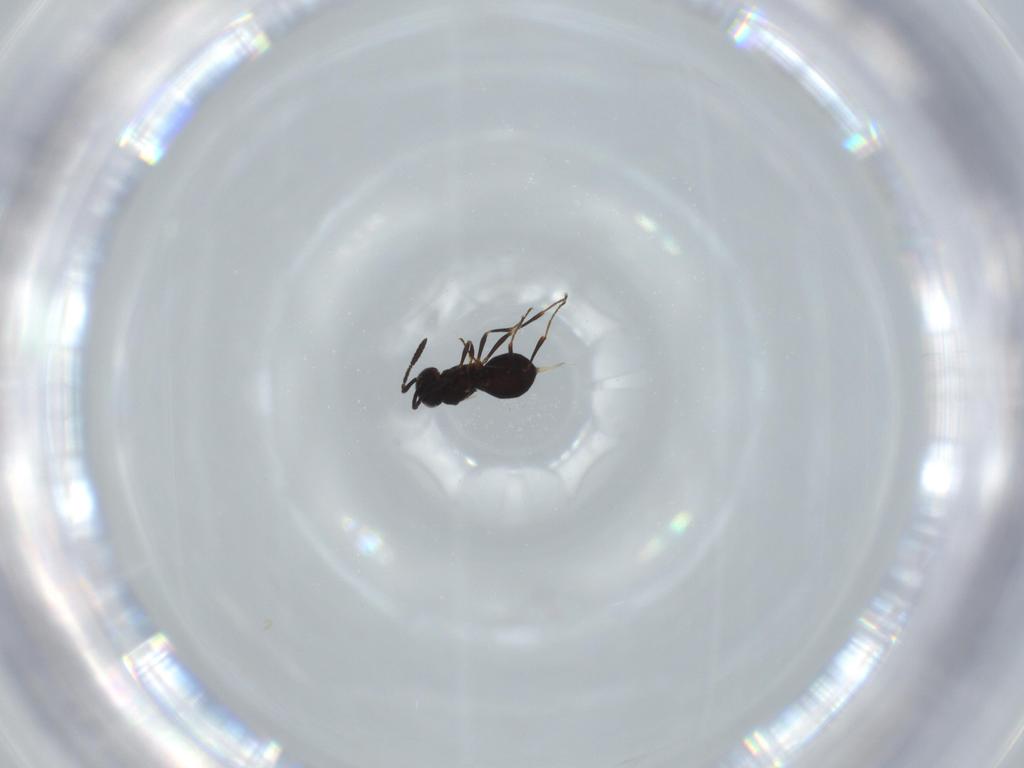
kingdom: Animalia
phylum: Arthropoda
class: Insecta
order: Hymenoptera
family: Scelionidae
